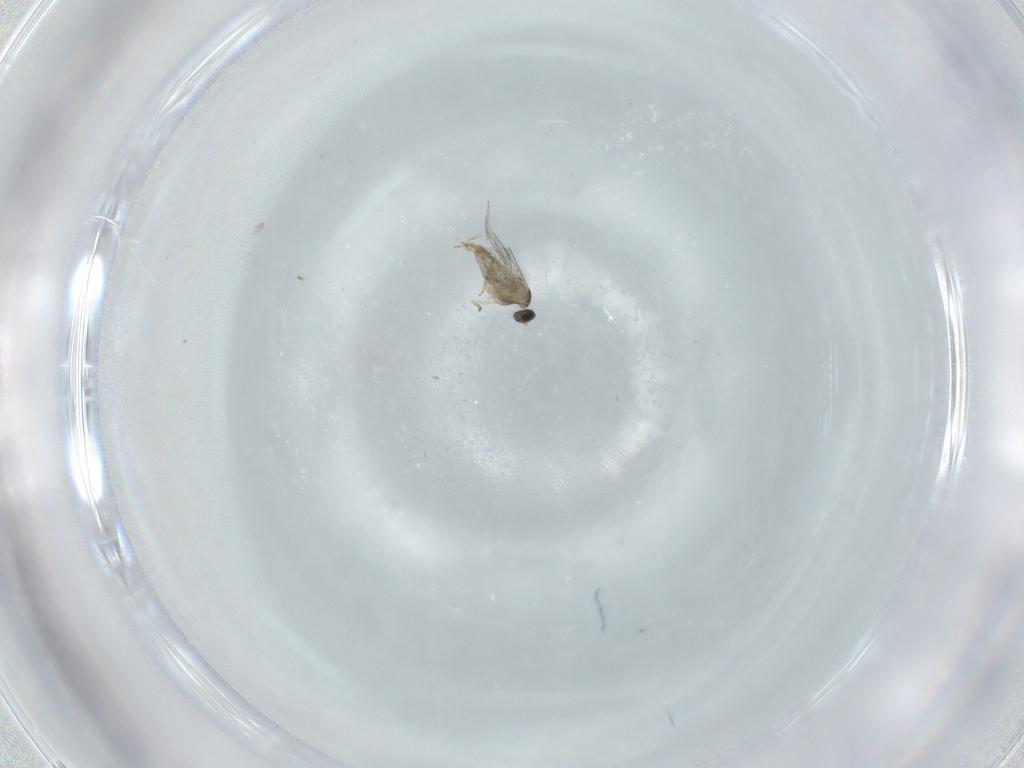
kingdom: Animalia
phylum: Arthropoda
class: Insecta
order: Diptera
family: Cecidomyiidae
